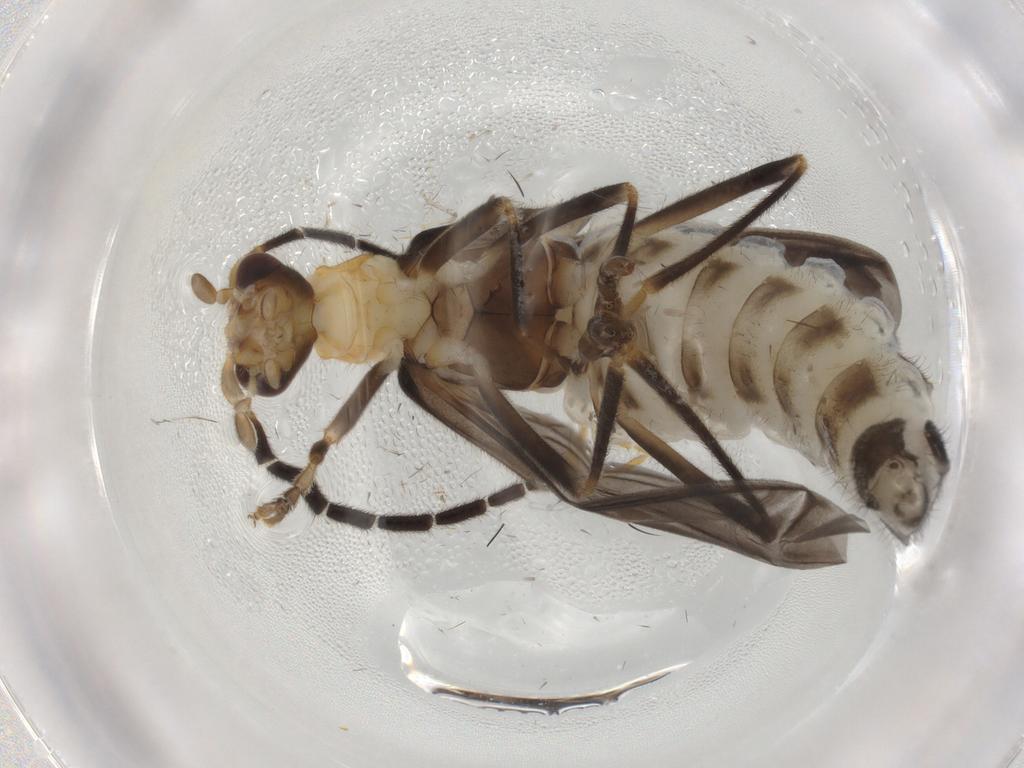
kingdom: Animalia
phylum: Arthropoda
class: Insecta
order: Coleoptera
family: Cantharidae
